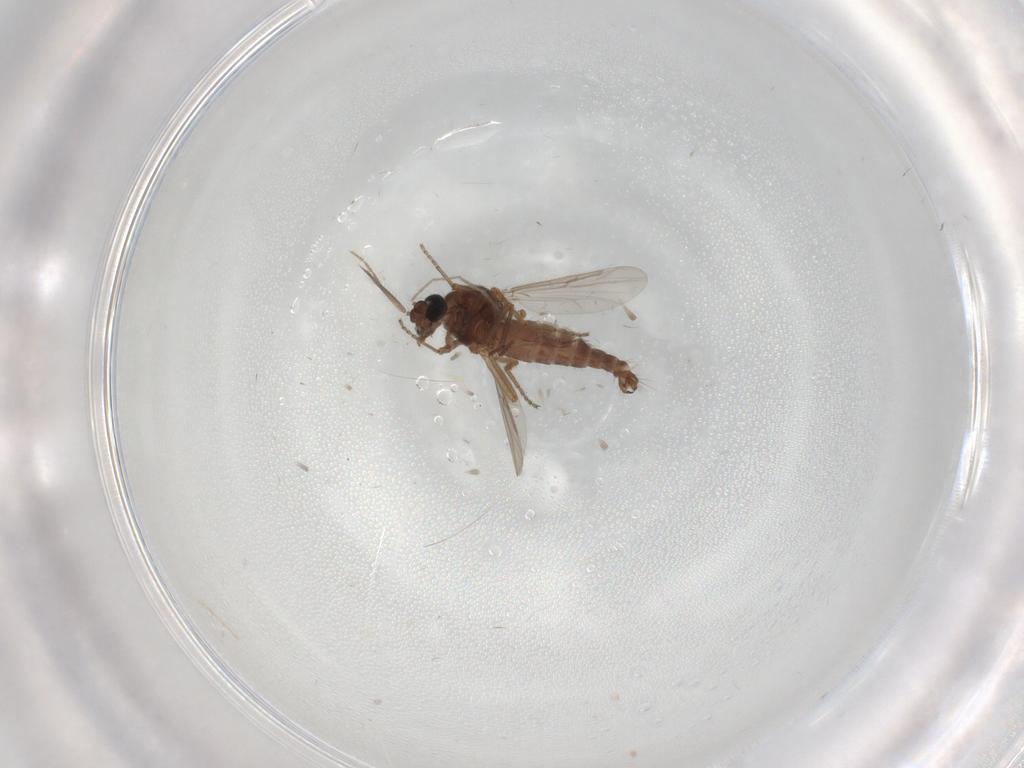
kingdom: Animalia
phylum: Arthropoda
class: Insecta
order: Diptera
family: Ceratopogonidae
